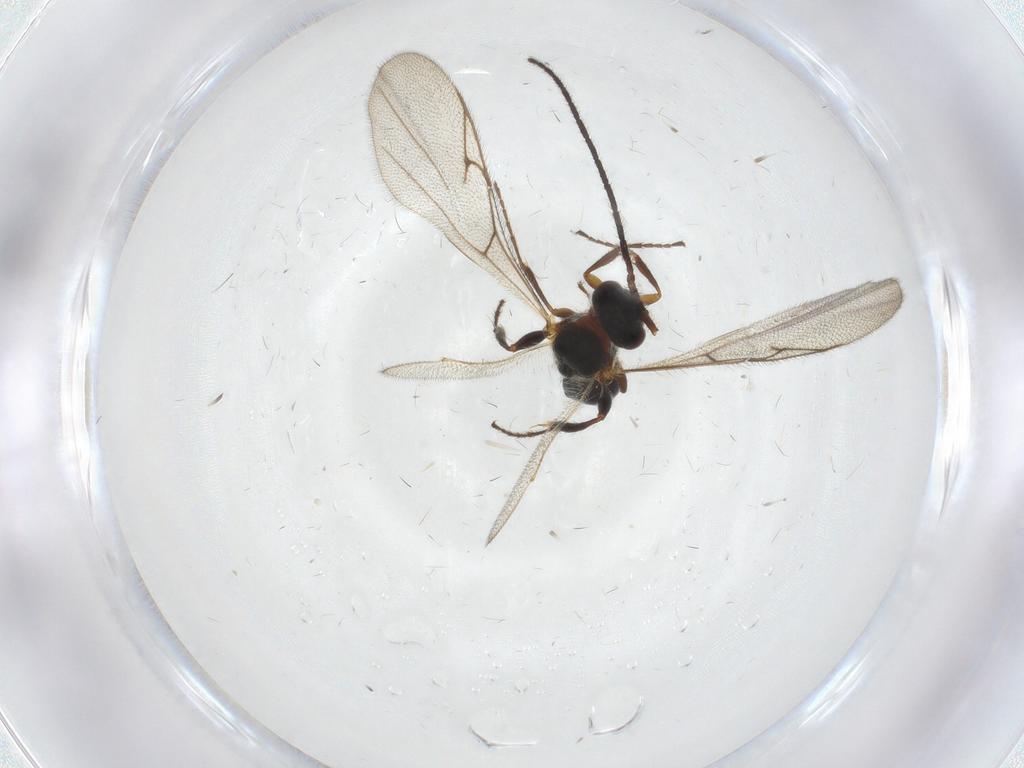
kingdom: Animalia
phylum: Arthropoda
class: Insecta
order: Hymenoptera
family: Diapriidae
